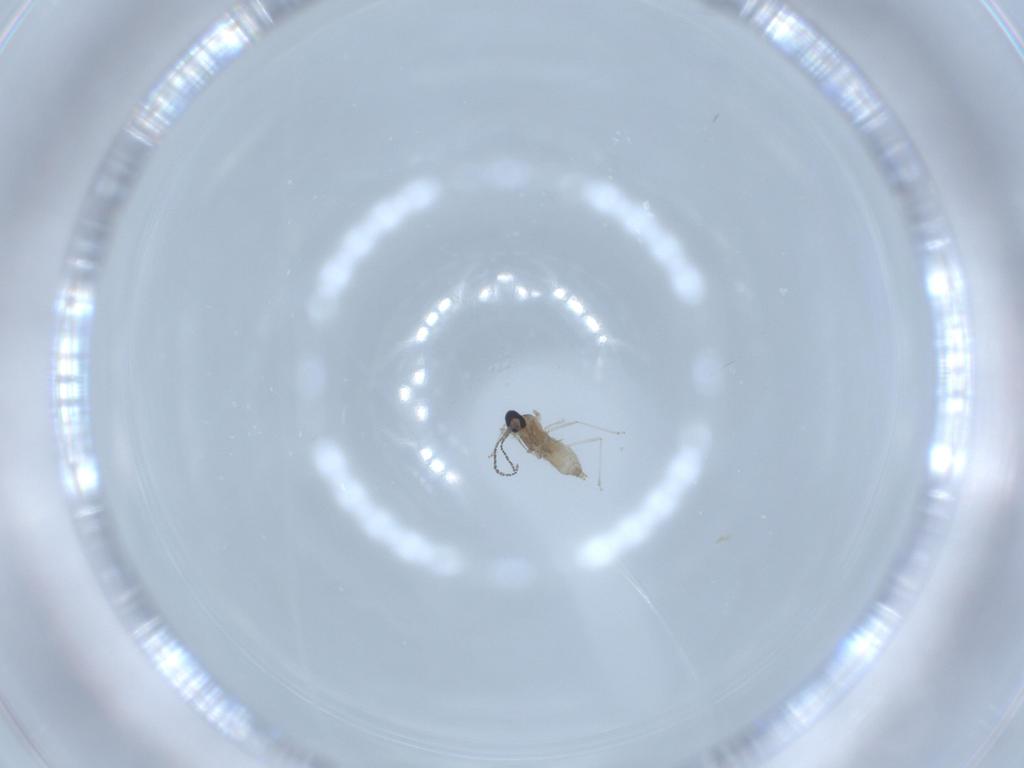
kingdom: Animalia
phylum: Arthropoda
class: Insecta
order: Diptera
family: Cecidomyiidae
